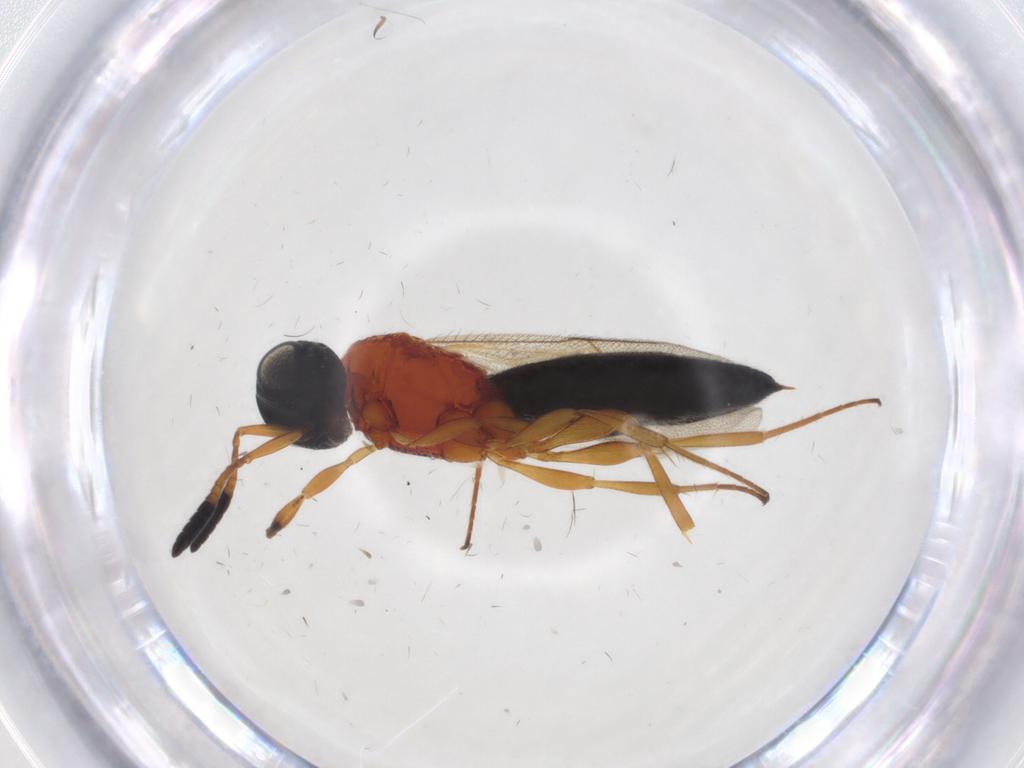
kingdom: Animalia
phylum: Arthropoda
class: Insecta
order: Hymenoptera
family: Scelionidae
